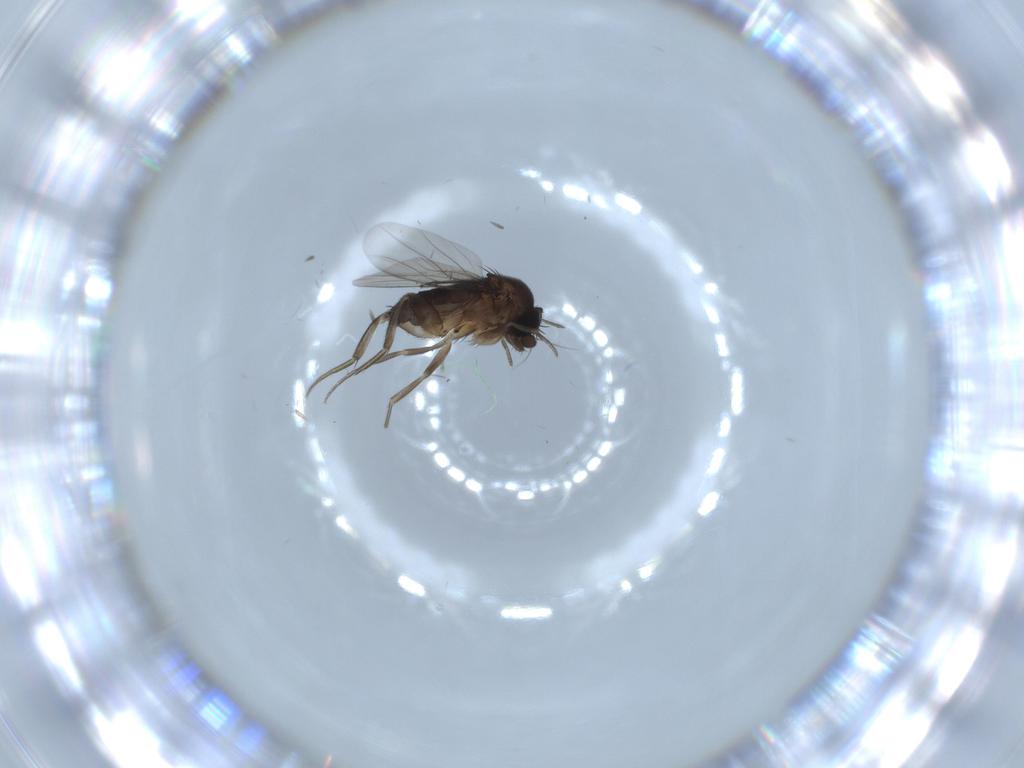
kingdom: Animalia
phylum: Arthropoda
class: Insecta
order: Diptera
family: Phoridae
